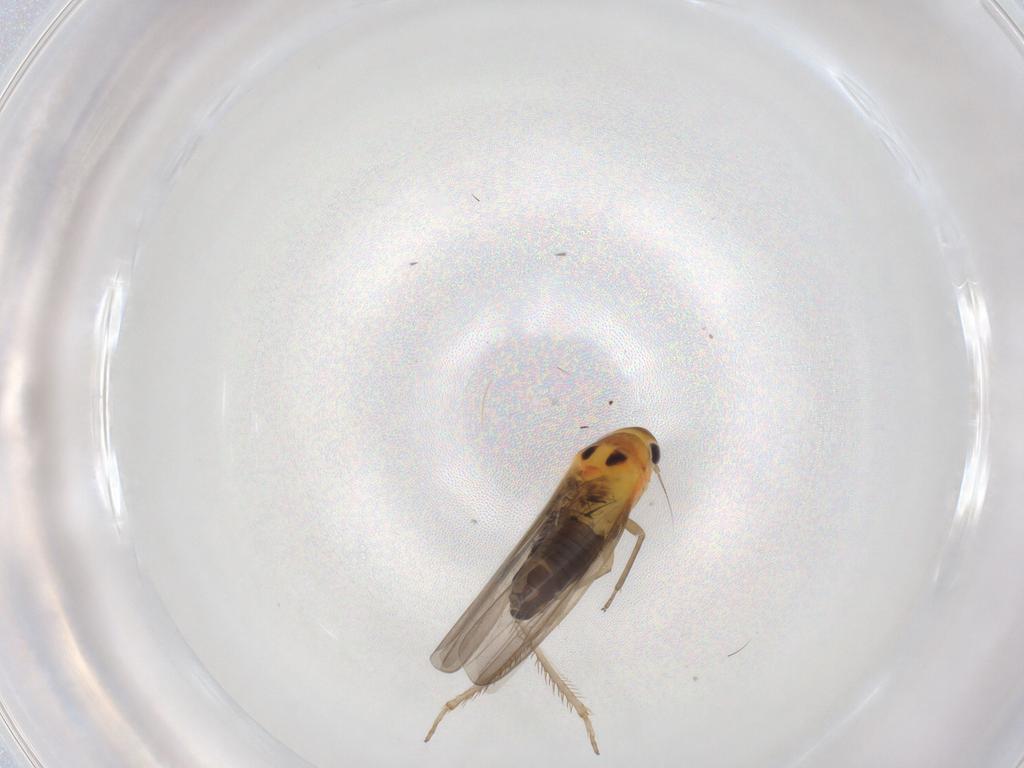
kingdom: Animalia
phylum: Arthropoda
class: Insecta
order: Hemiptera
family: Cicadellidae
